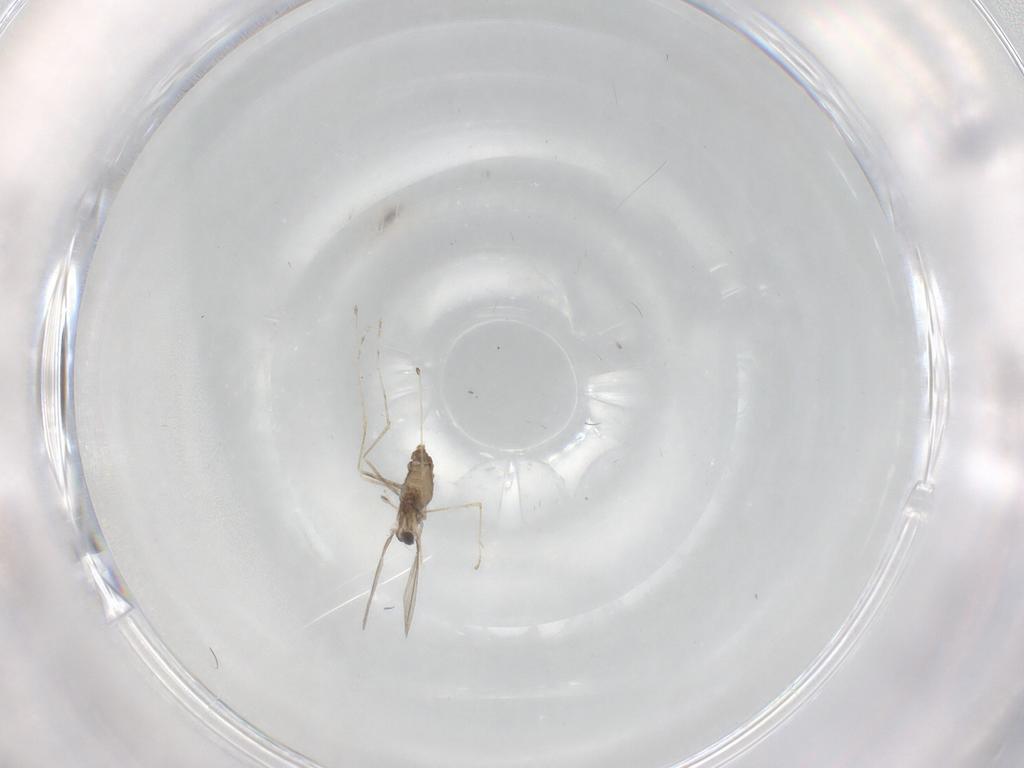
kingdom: Animalia
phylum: Arthropoda
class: Insecta
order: Diptera
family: Cecidomyiidae
